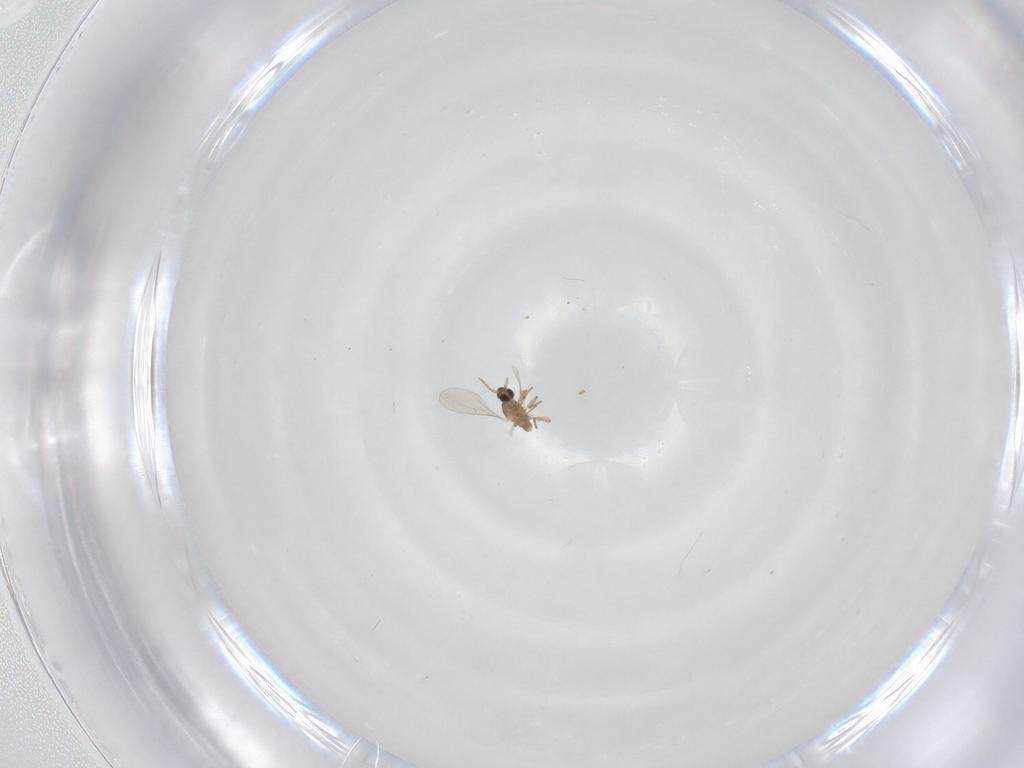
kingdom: Animalia
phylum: Arthropoda
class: Insecta
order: Diptera
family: Cecidomyiidae
